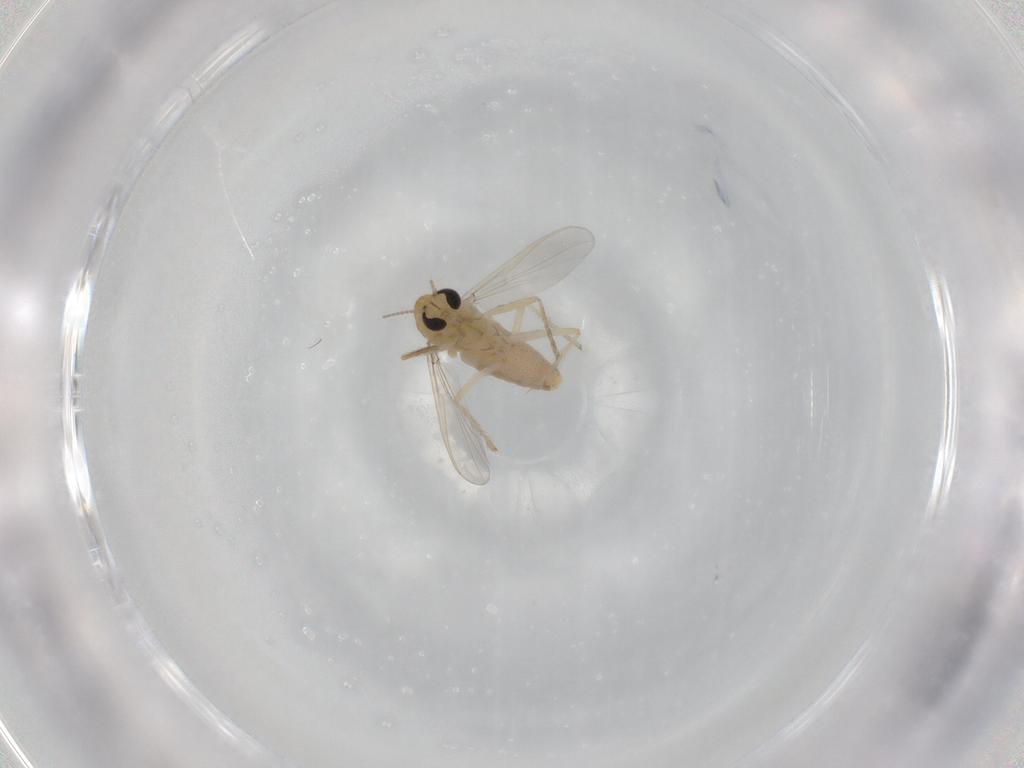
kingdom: Animalia
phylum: Arthropoda
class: Insecta
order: Diptera
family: Chironomidae
